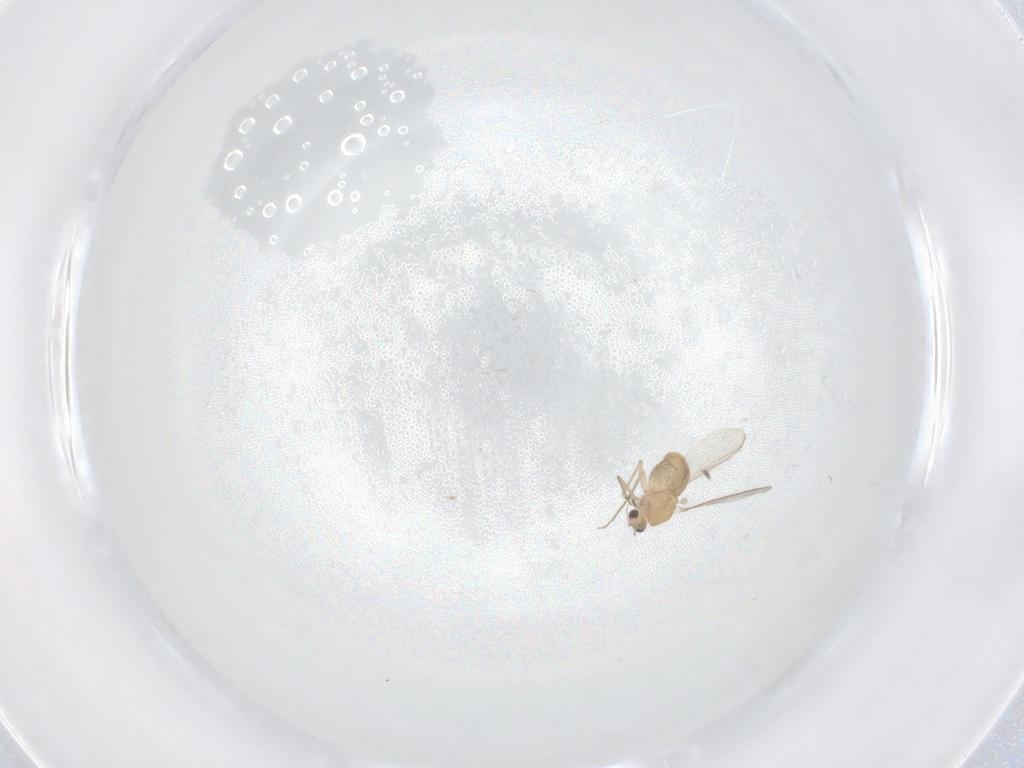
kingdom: Animalia
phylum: Arthropoda
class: Insecta
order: Diptera
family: Chironomidae
